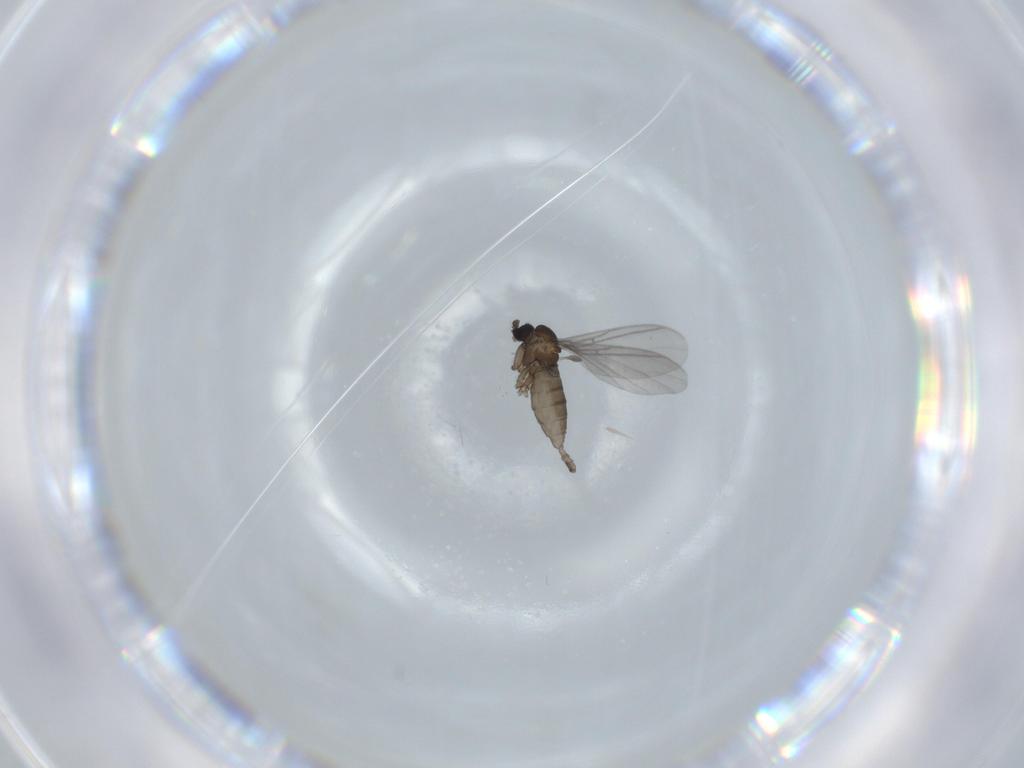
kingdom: Animalia
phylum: Arthropoda
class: Insecta
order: Diptera
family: Sciaridae
